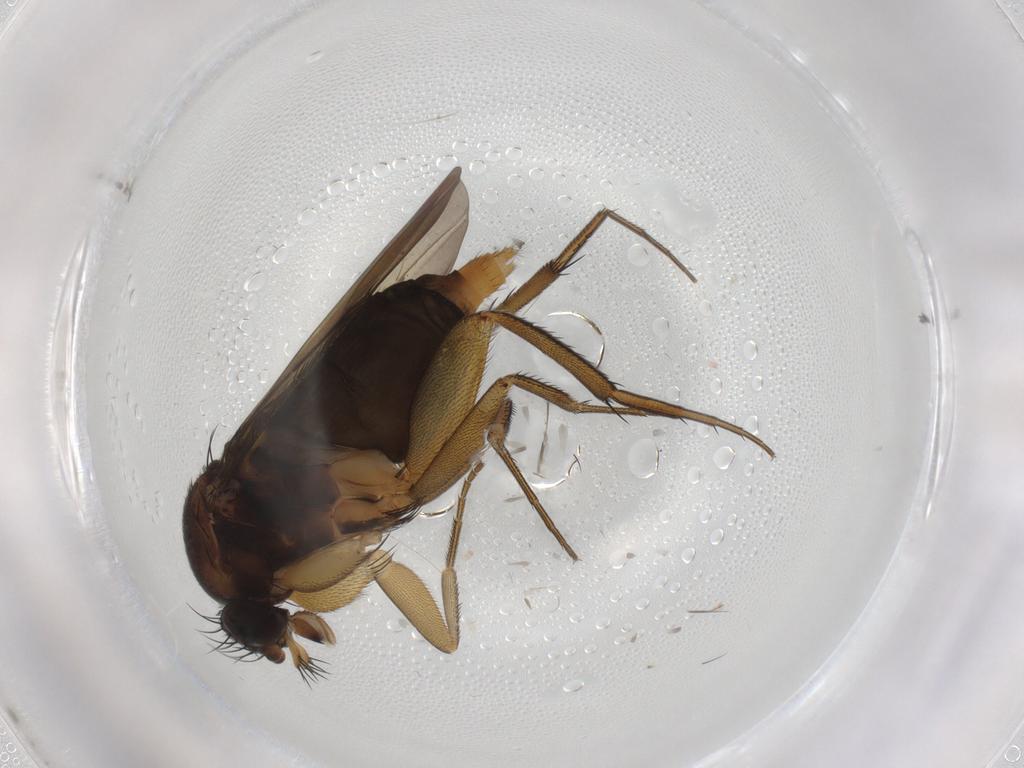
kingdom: Animalia
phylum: Arthropoda
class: Insecta
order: Diptera
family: Phoridae
